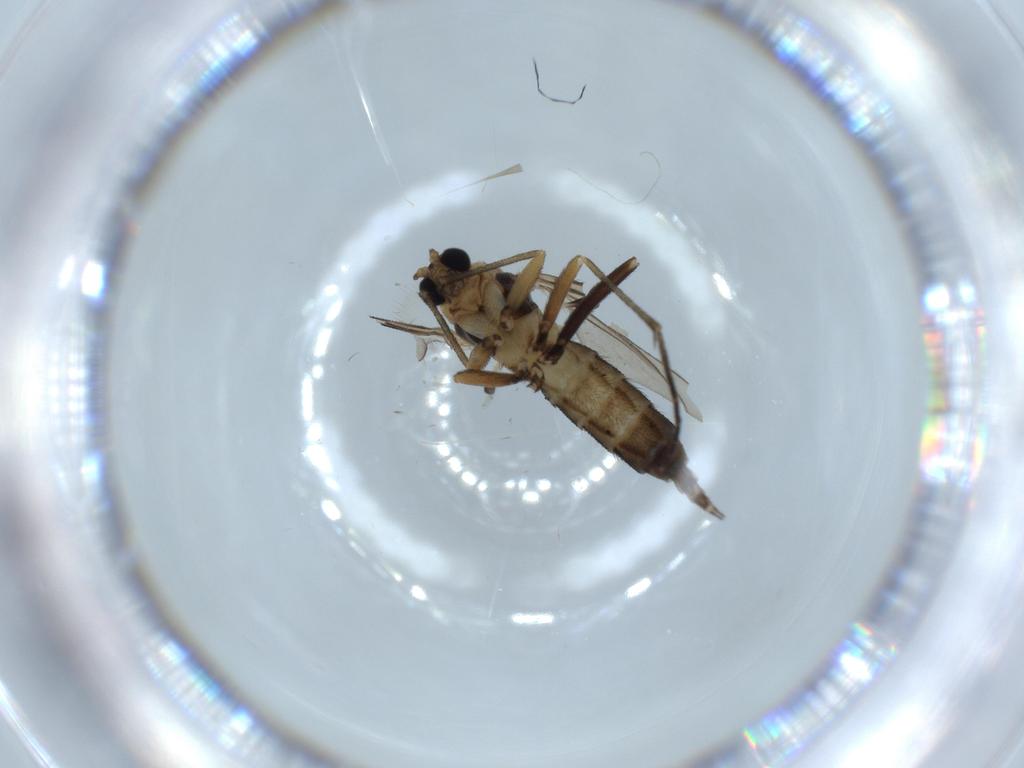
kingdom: Animalia
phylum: Arthropoda
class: Insecta
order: Diptera
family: Sciaridae
